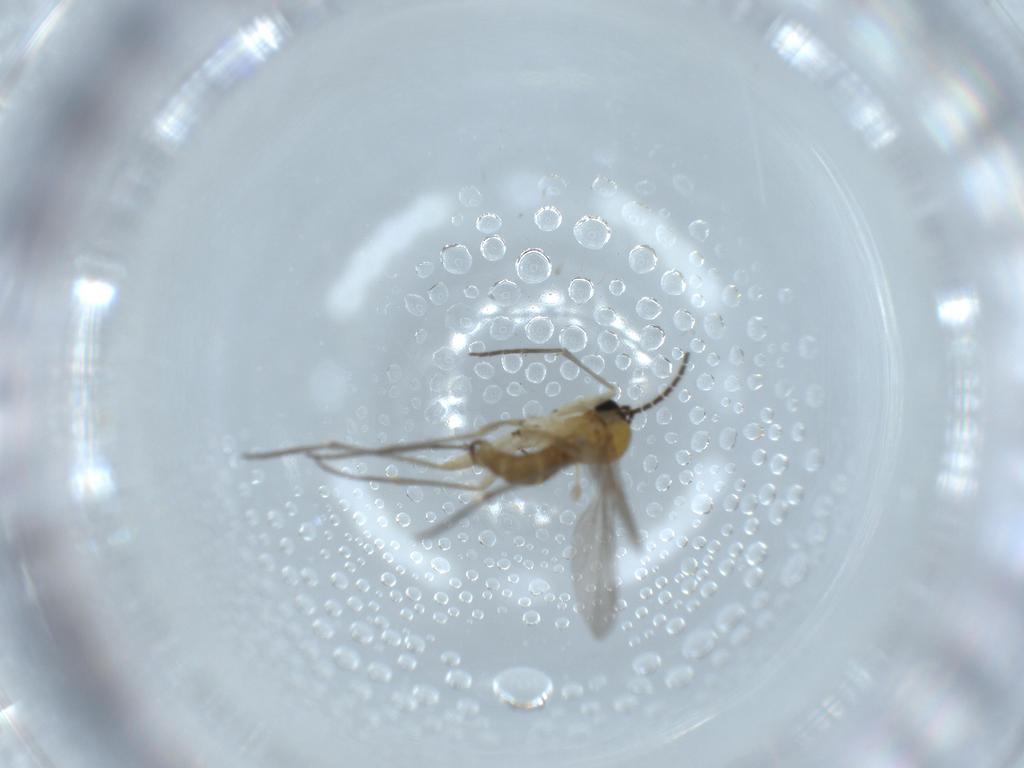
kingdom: Animalia
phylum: Arthropoda
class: Insecta
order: Diptera
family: Sciaridae
